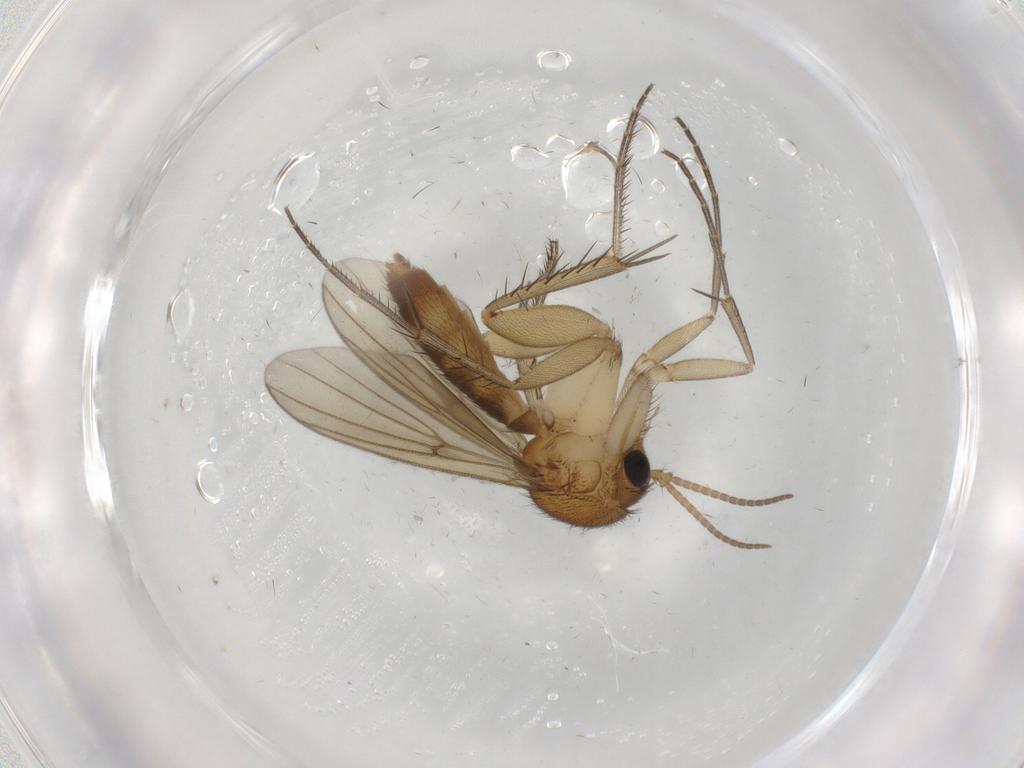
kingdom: Animalia
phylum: Arthropoda
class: Insecta
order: Diptera
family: Mycetophilidae
